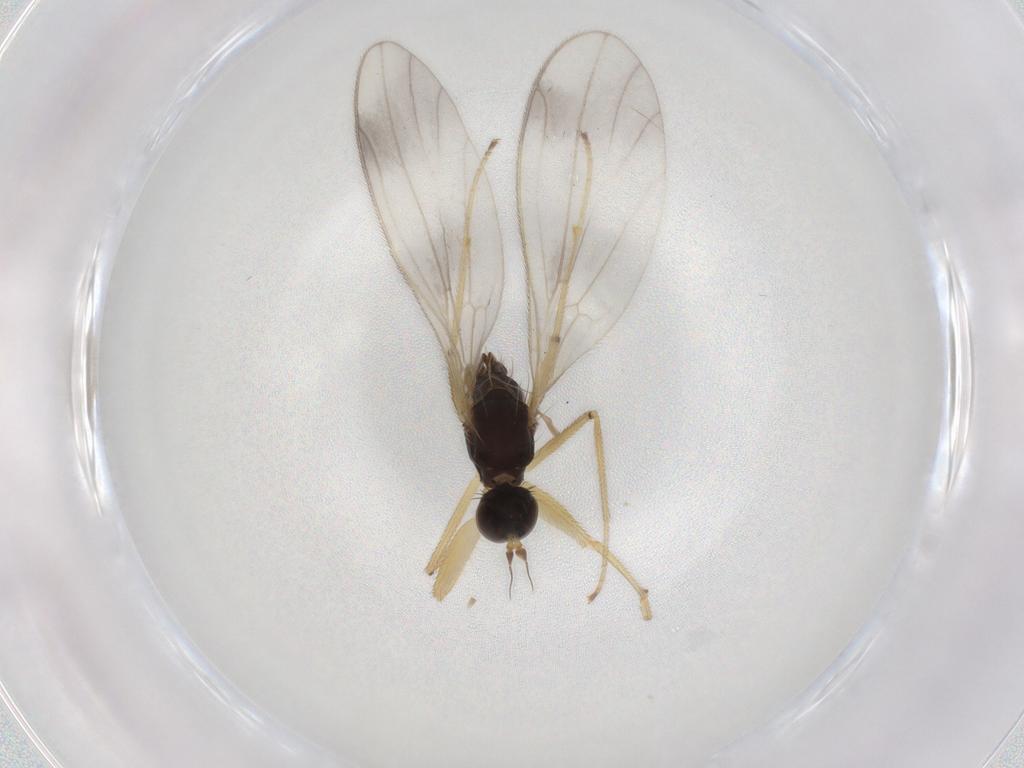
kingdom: Animalia
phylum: Arthropoda
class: Insecta
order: Diptera
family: Empididae
